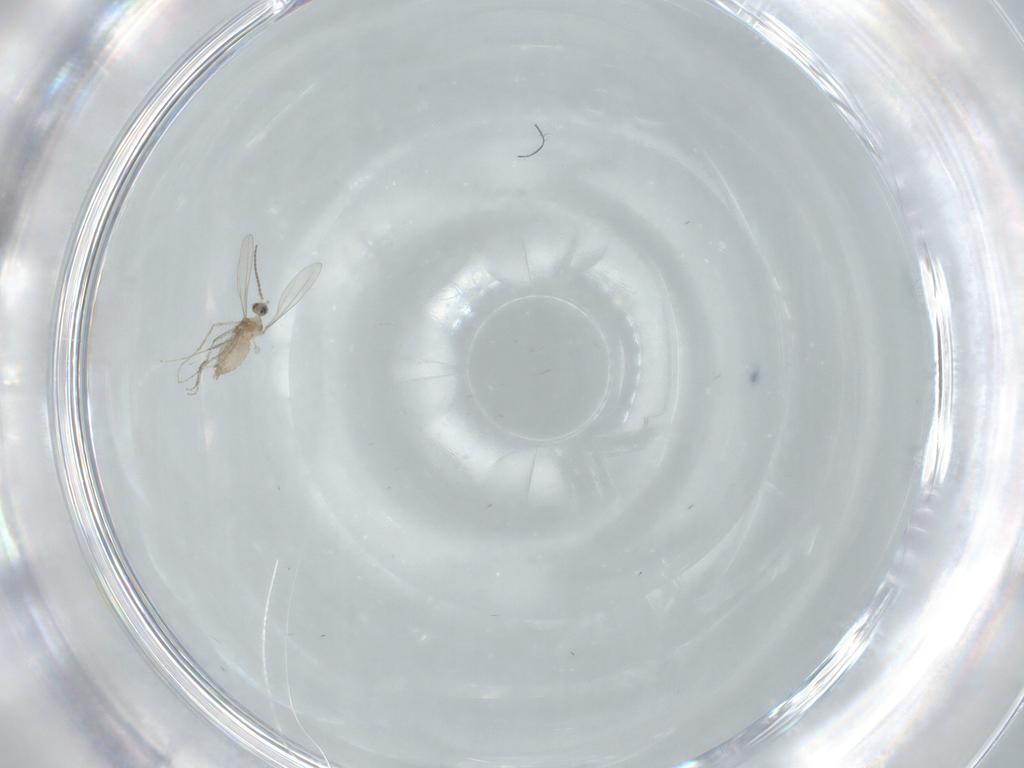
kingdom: Animalia
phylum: Arthropoda
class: Insecta
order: Diptera
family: Cecidomyiidae
